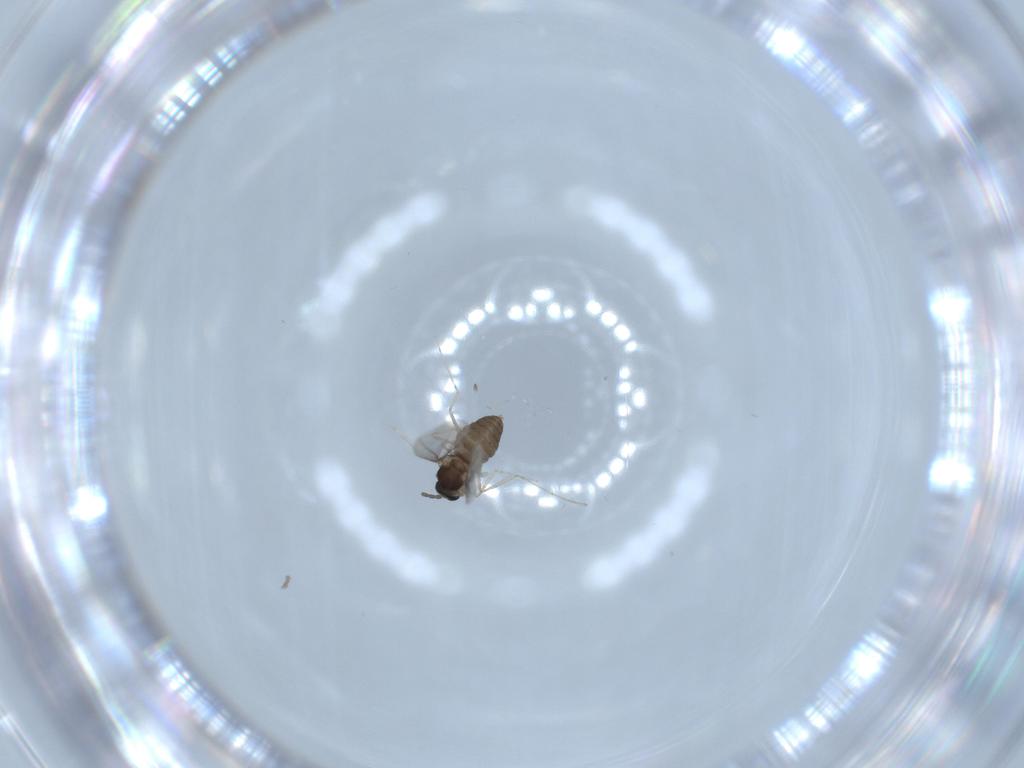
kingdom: Animalia
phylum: Arthropoda
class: Insecta
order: Diptera
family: Cecidomyiidae
